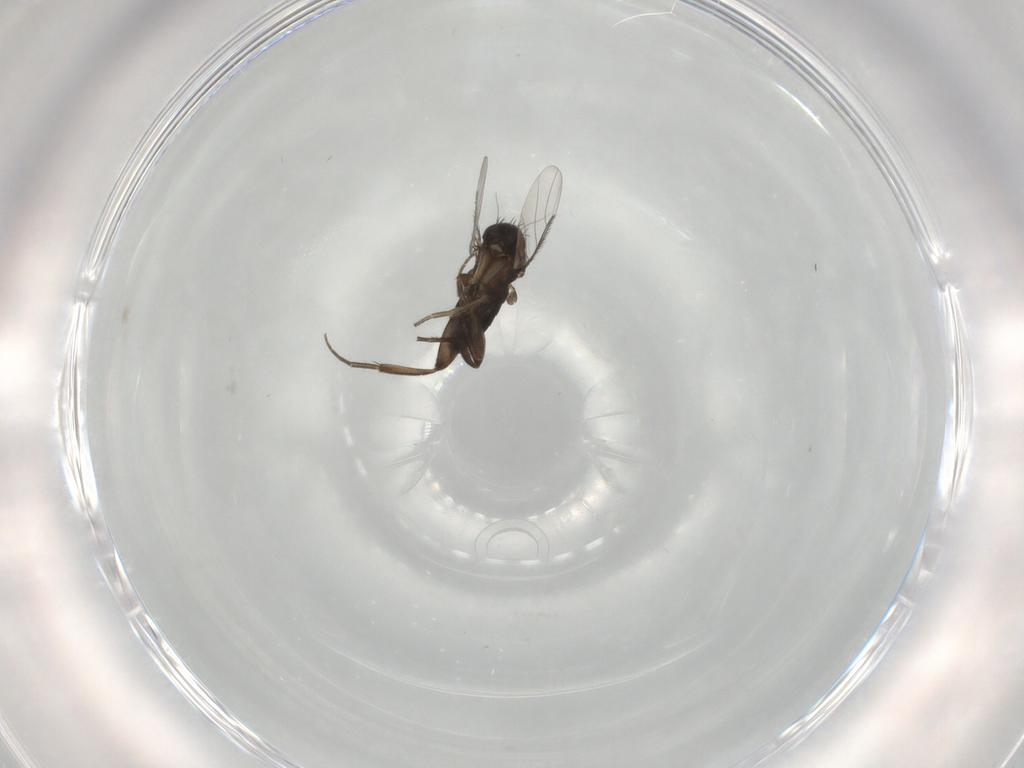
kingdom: Animalia
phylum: Arthropoda
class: Insecta
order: Diptera
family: Phoridae
